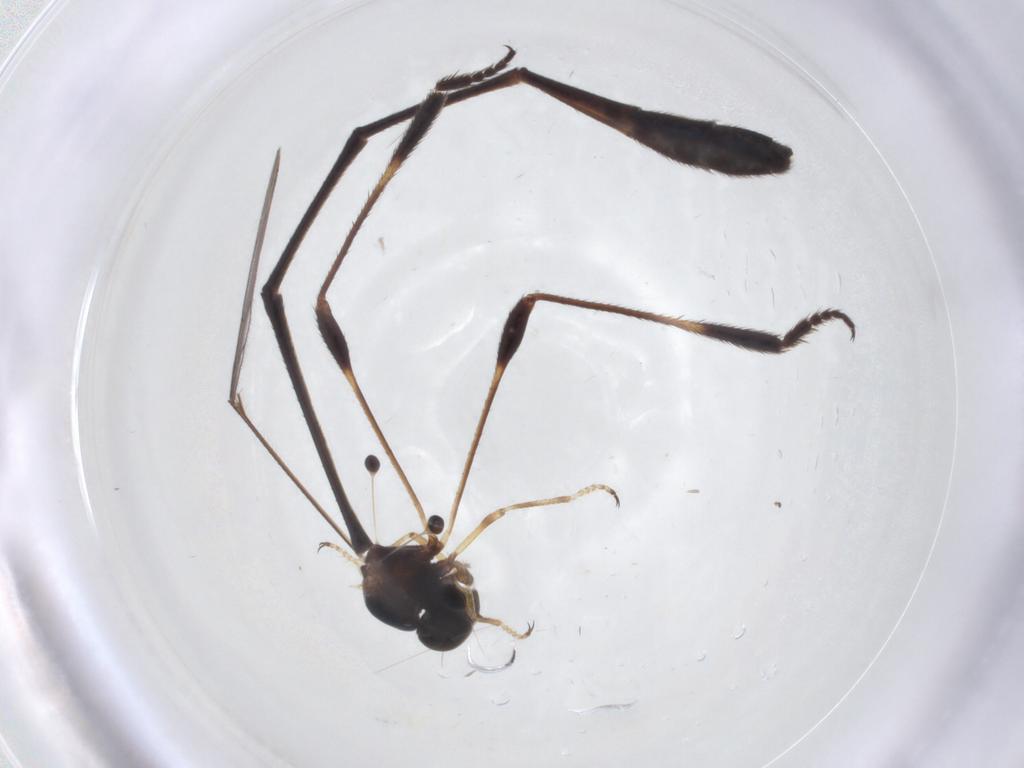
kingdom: Animalia
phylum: Arthropoda
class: Insecta
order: Diptera
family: Asilidae
